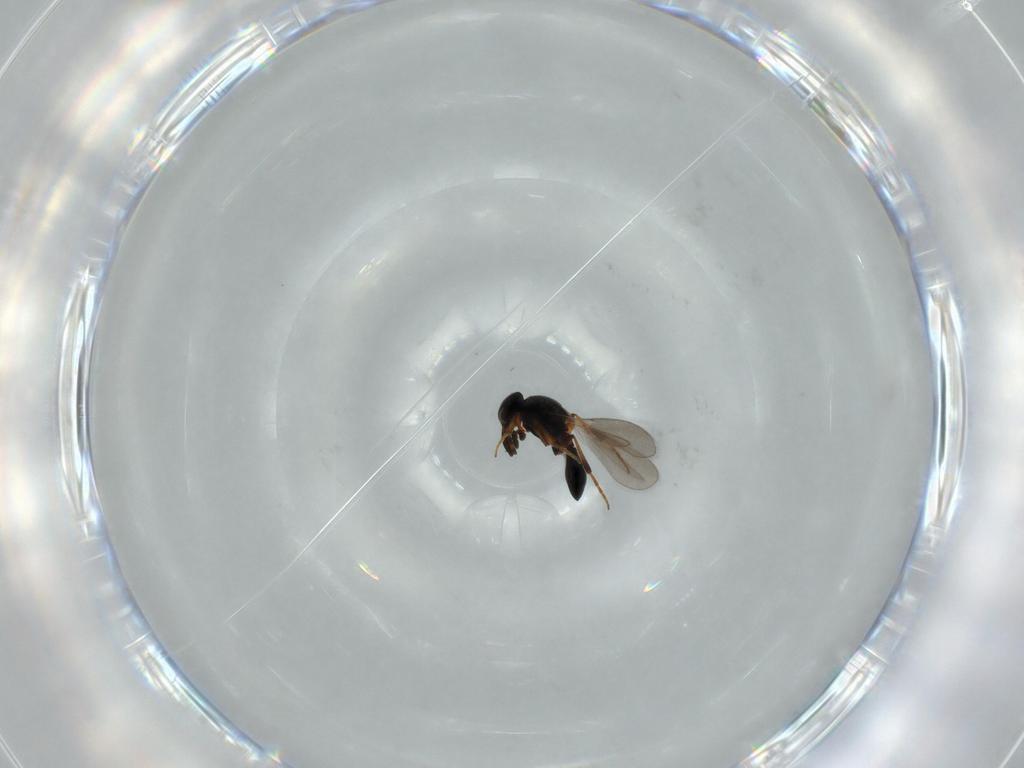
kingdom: Animalia
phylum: Arthropoda
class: Insecta
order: Hymenoptera
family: Platygastridae
